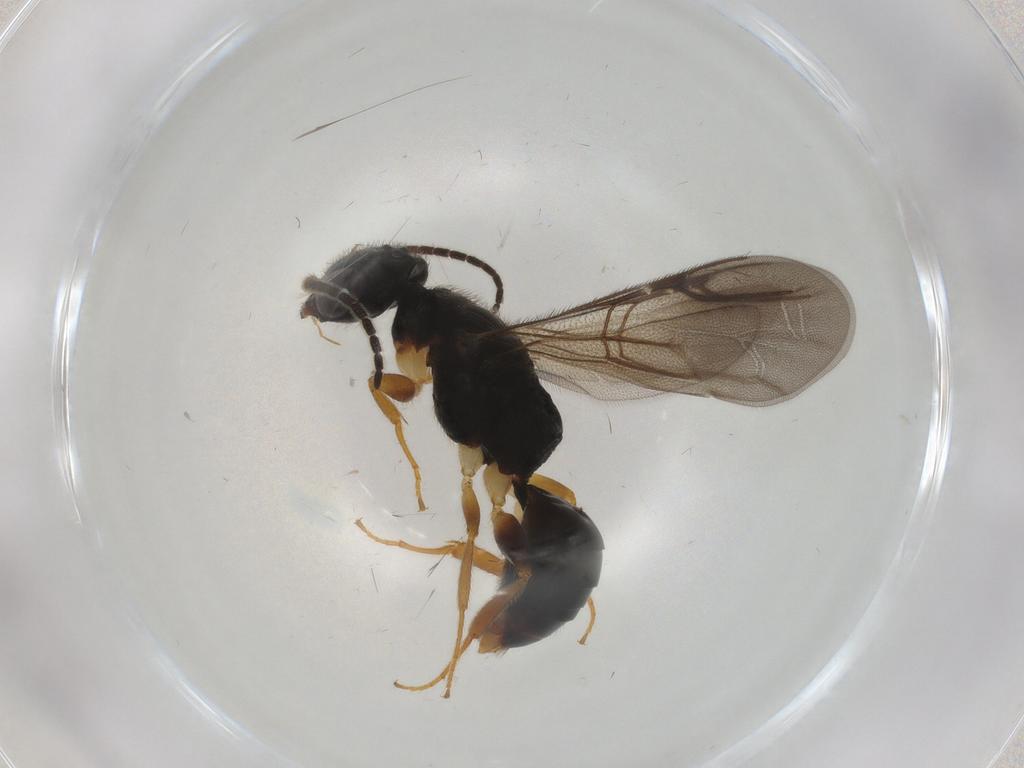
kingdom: Animalia
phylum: Arthropoda
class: Insecta
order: Hymenoptera
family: Bethylidae
